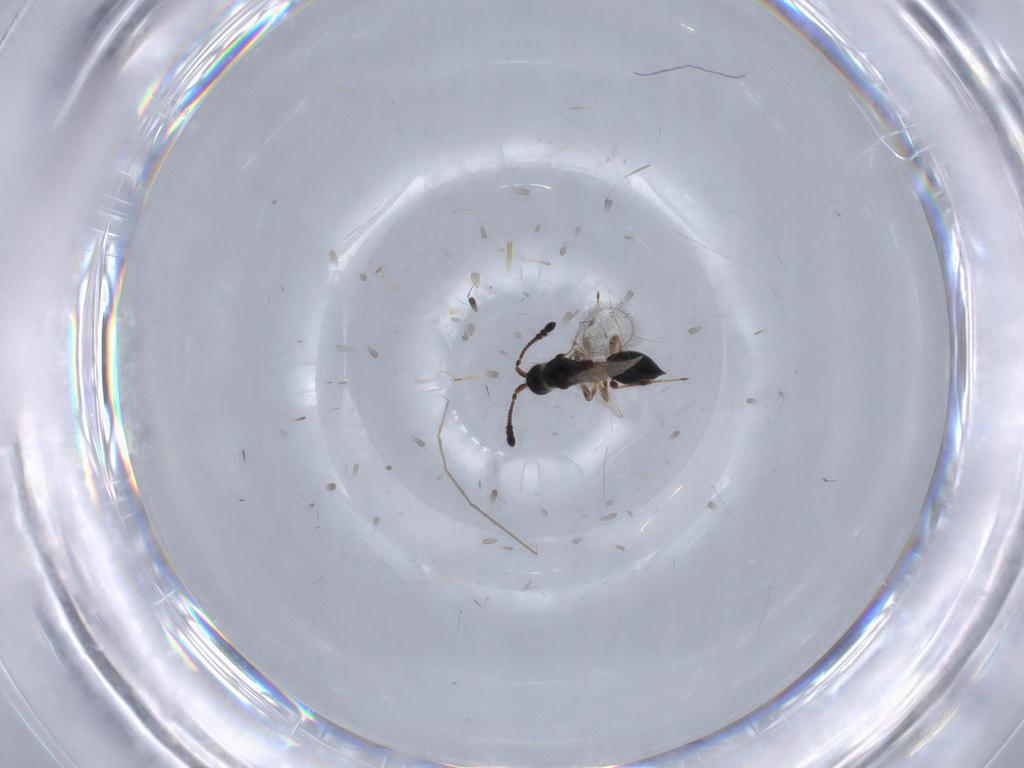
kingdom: Animalia
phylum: Arthropoda
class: Insecta
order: Hymenoptera
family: Diapriidae
